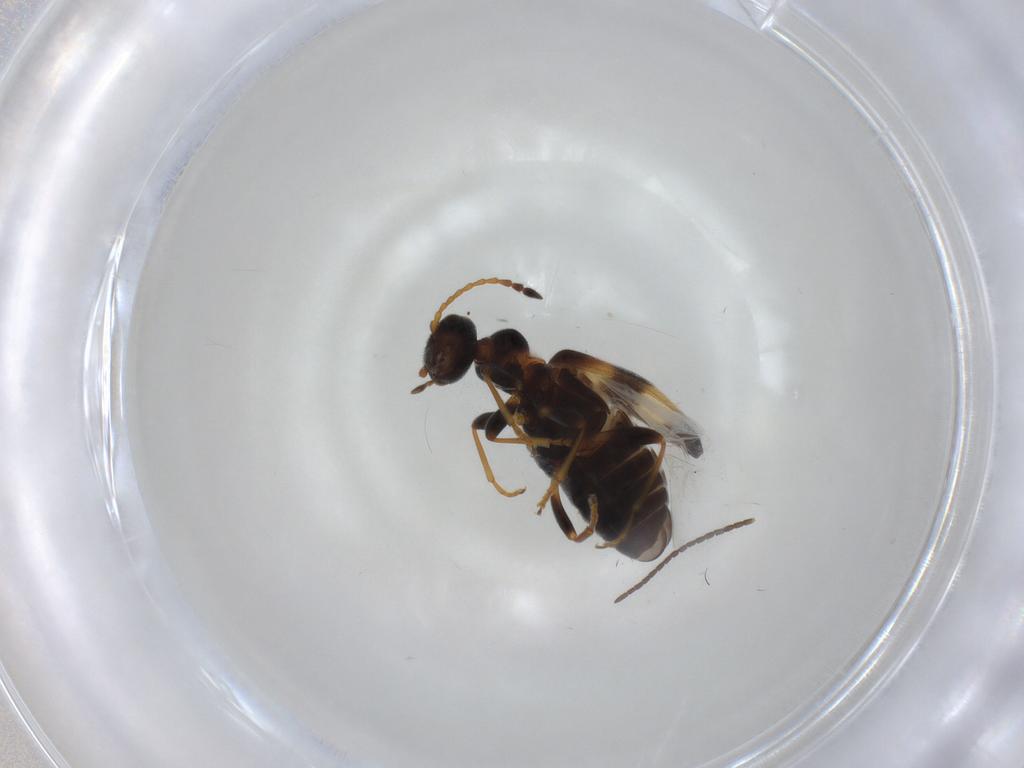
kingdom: Animalia
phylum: Arthropoda
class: Insecta
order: Coleoptera
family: Anthicidae
